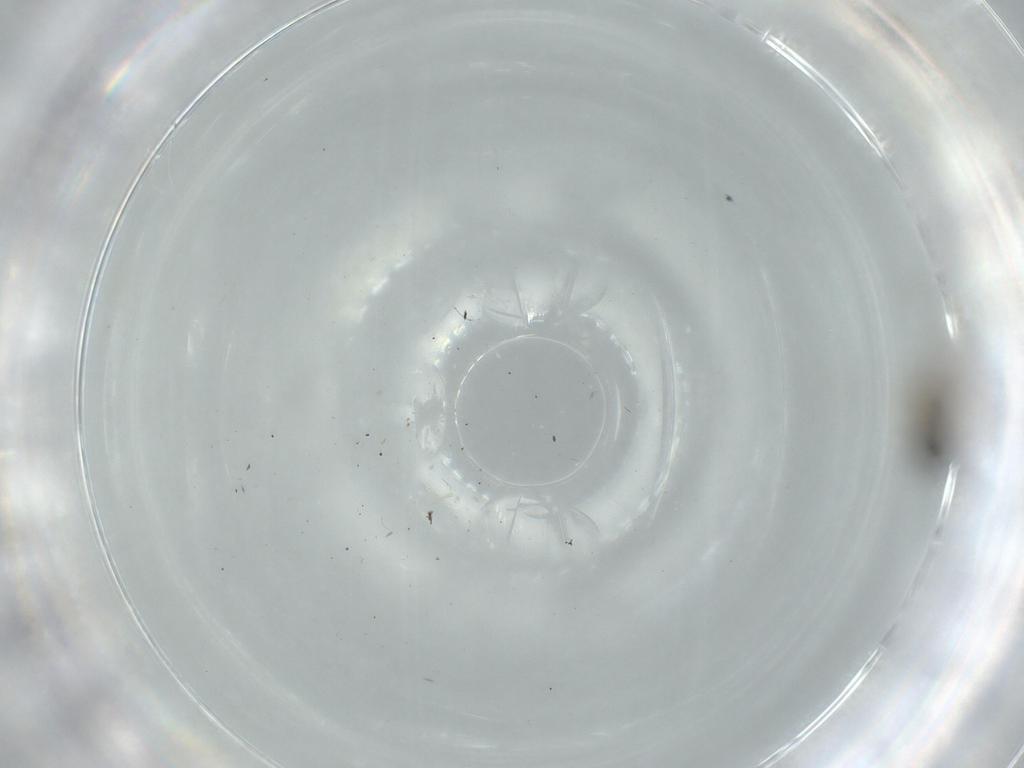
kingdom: Animalia
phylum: Arthropoda
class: Insecta
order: Diptera
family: Cecidomyiidae
